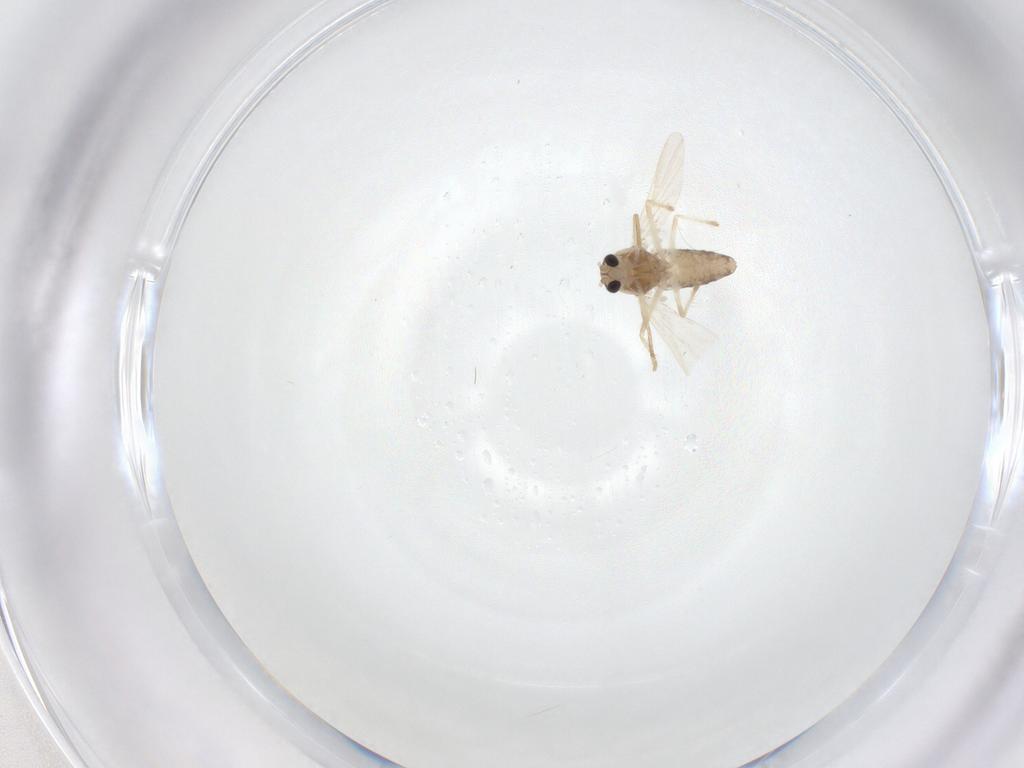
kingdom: Animalia
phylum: Arthropoda
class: Insecta
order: Diptera
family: Chironomidae
